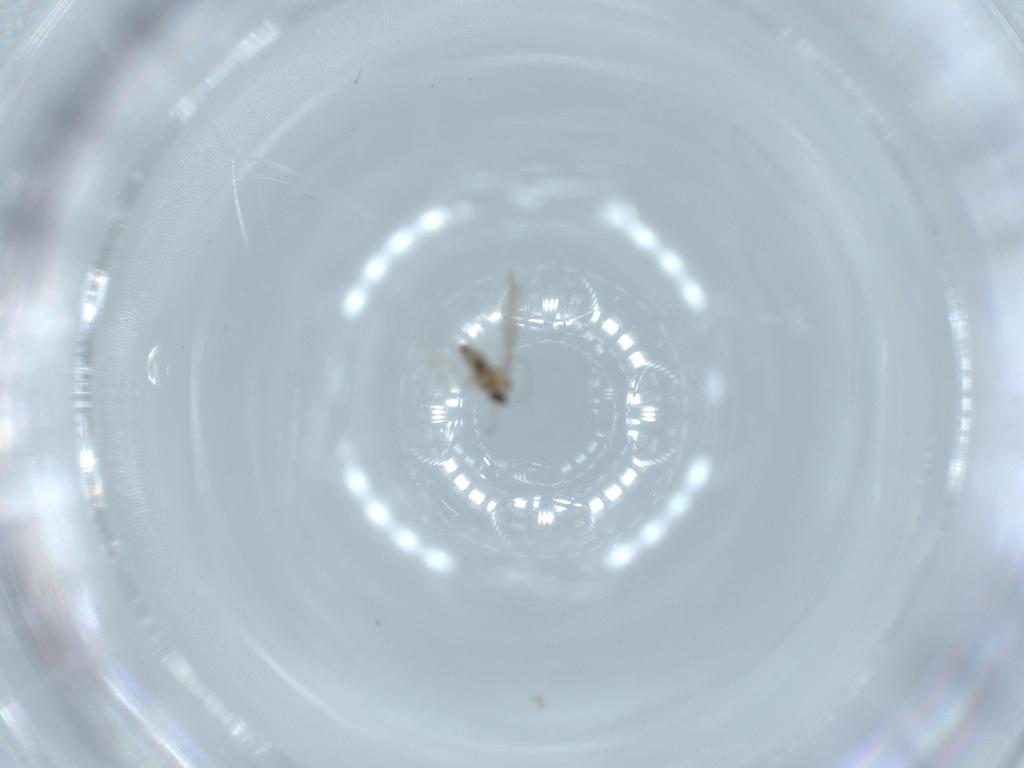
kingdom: Animalia
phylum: Arthropoda
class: Insecta
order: Diptera
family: Cecidomyiidae
